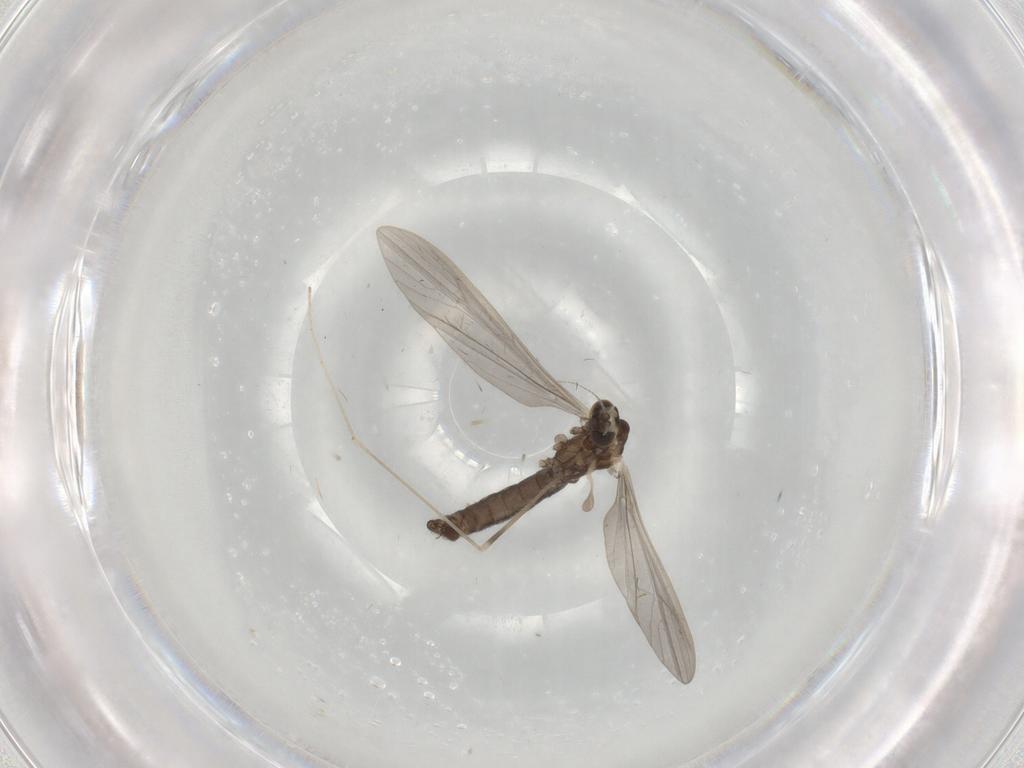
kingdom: Animalia
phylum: Arthropoda
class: Insecta
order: Diptera
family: Limoniidae
